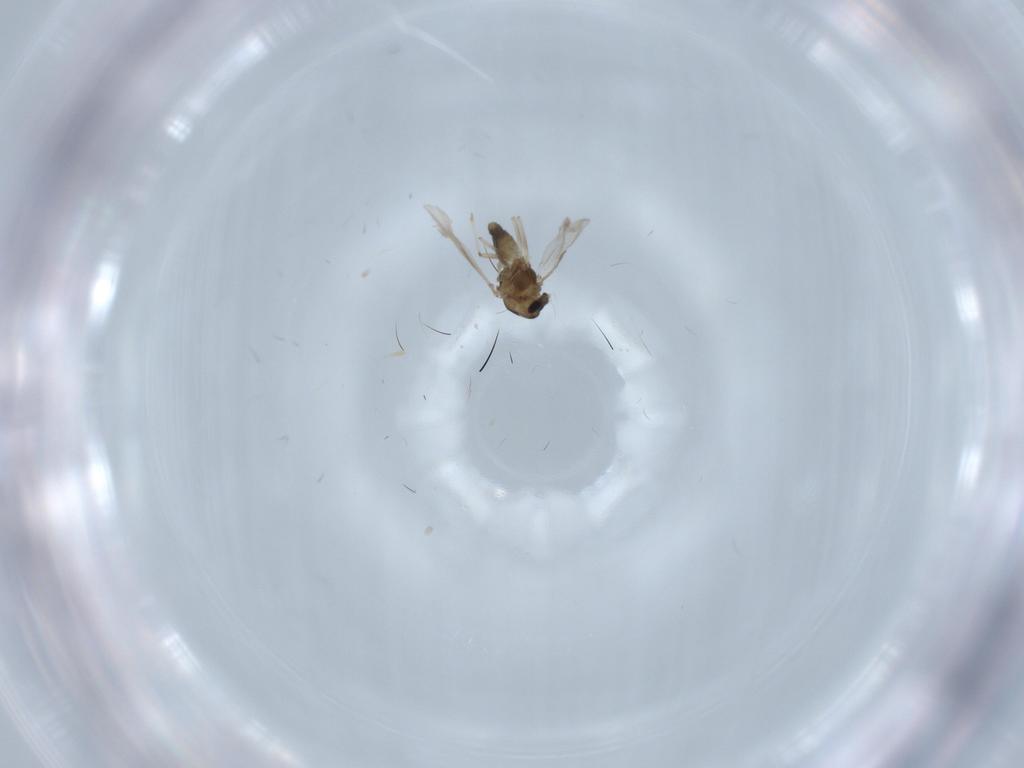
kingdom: Animalia
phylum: Arthropoda
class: Insecta
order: Diptera
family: Chironomidae
